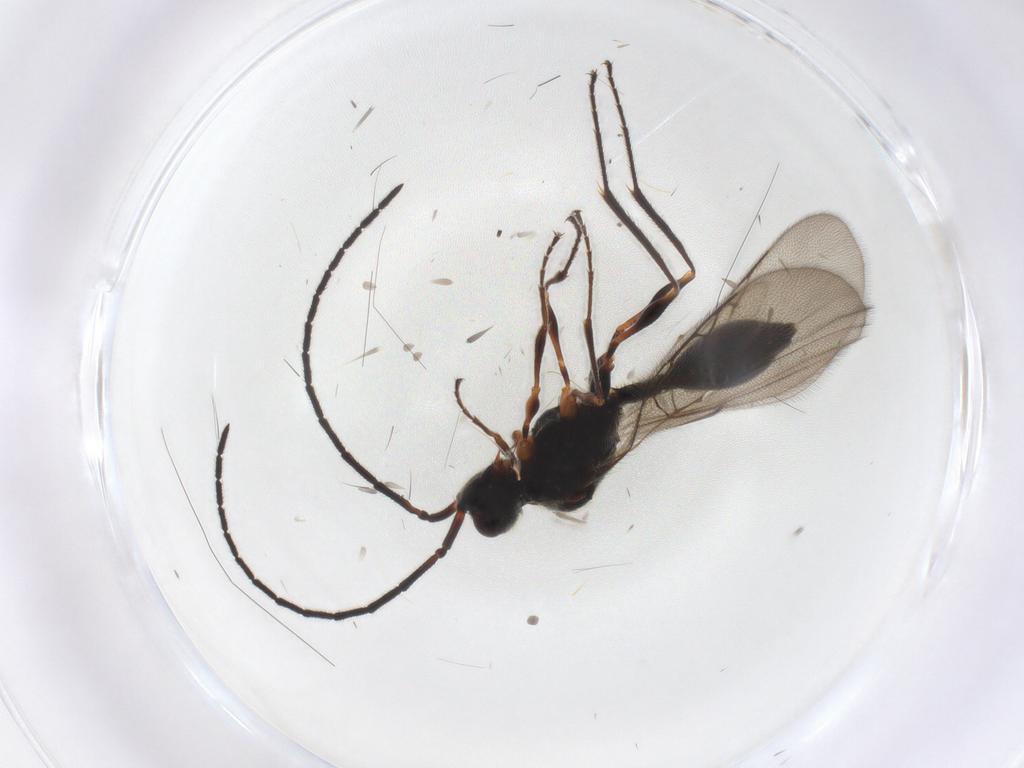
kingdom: Animalia
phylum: Arthropoda
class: Insecta
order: Hymenoptera
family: Diapriidae
